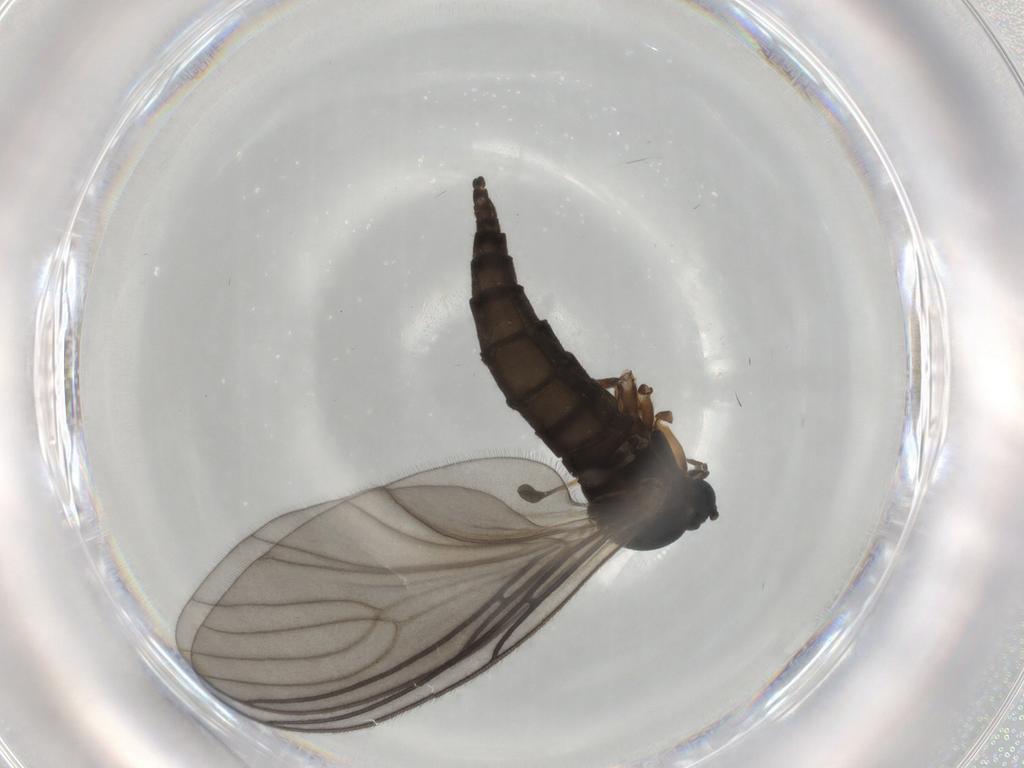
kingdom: Animalia
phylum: Arthropoda
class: Insecta
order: Diptera
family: Sciaridae
